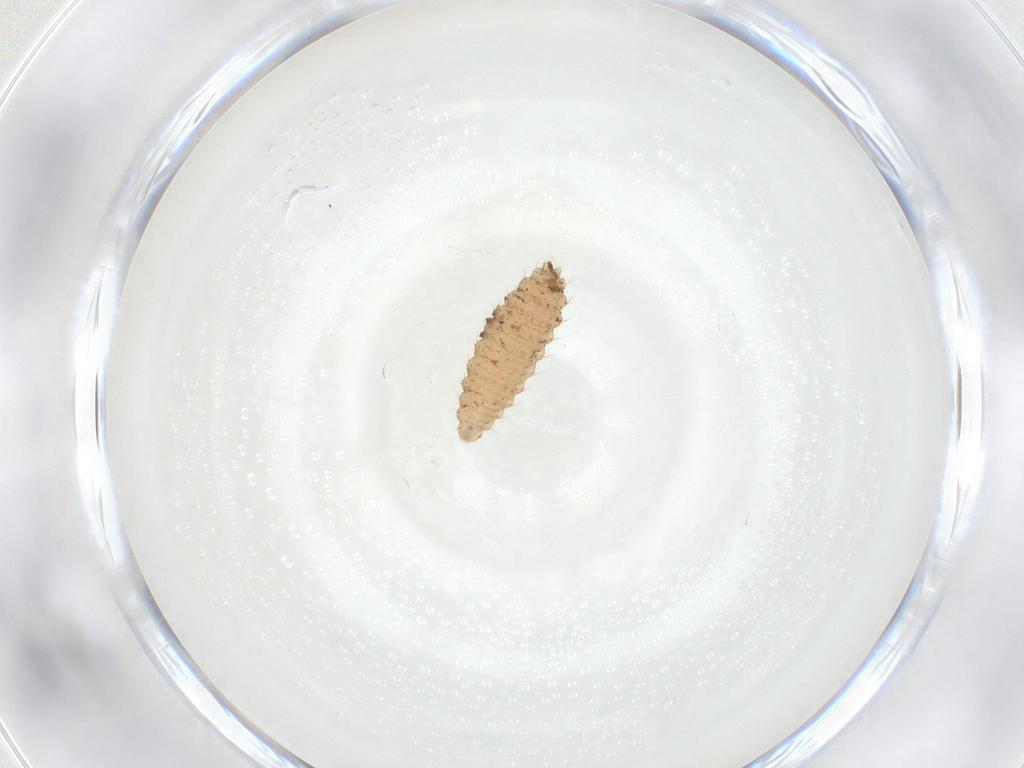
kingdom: Animalia
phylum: Arthropoda
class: Insecta
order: Diptera
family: Cecidomyiidae
